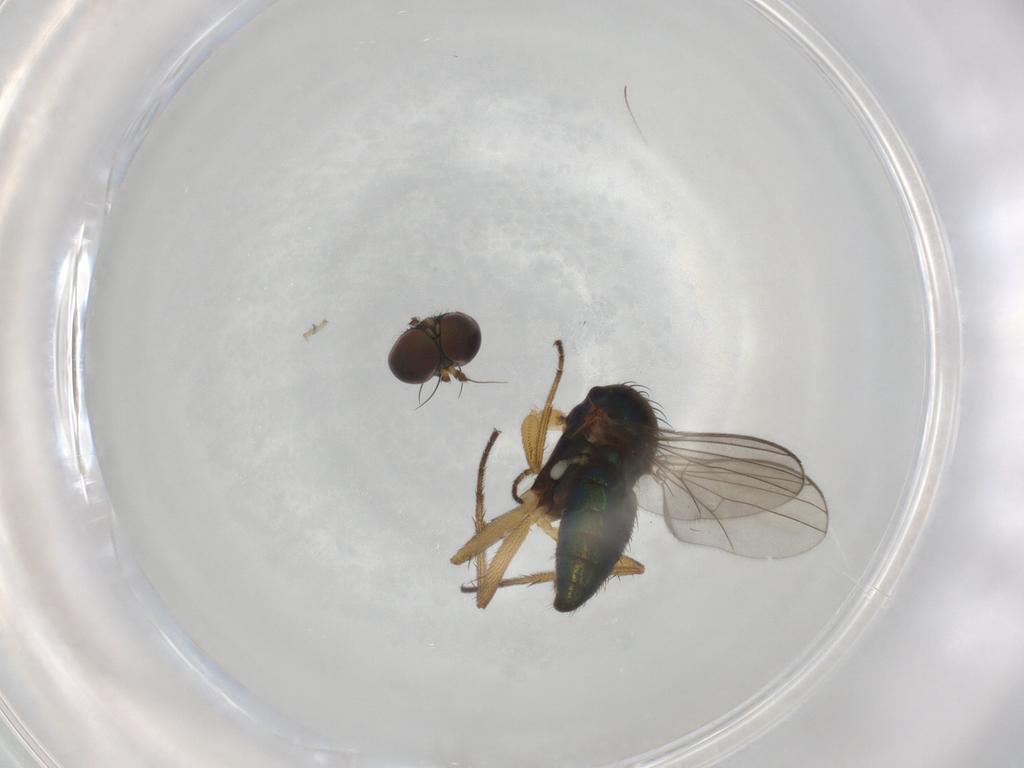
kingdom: Animalia
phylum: Arthropoda
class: Insecta
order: Diptera
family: Dolichopodidae
